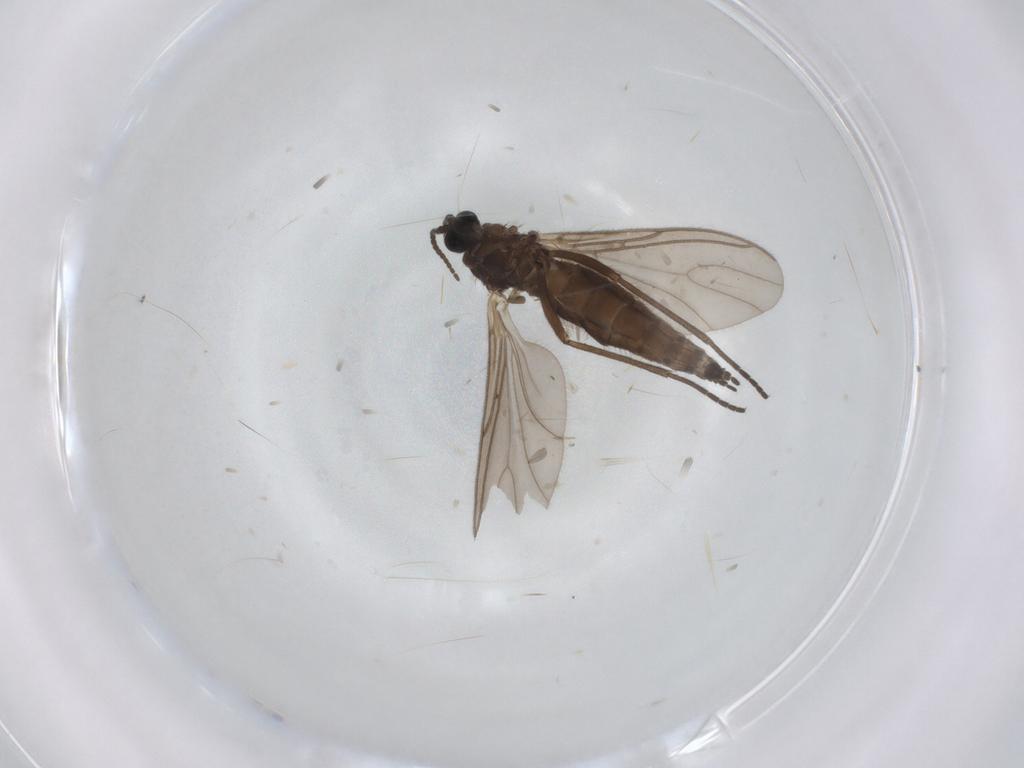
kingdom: Animalia
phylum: Arthropoda
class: Insecta
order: Diptera
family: Sciaridae
